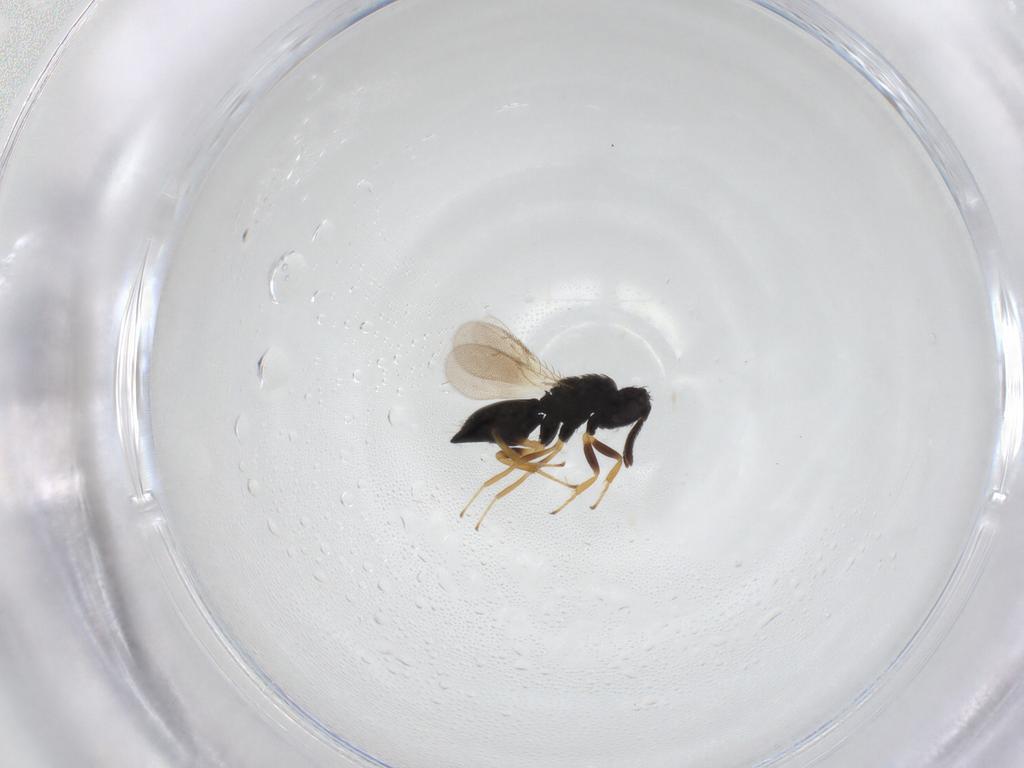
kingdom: Animalia
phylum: Arthropoda
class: Insecta
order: Hymenoptera
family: Pteromalidae
